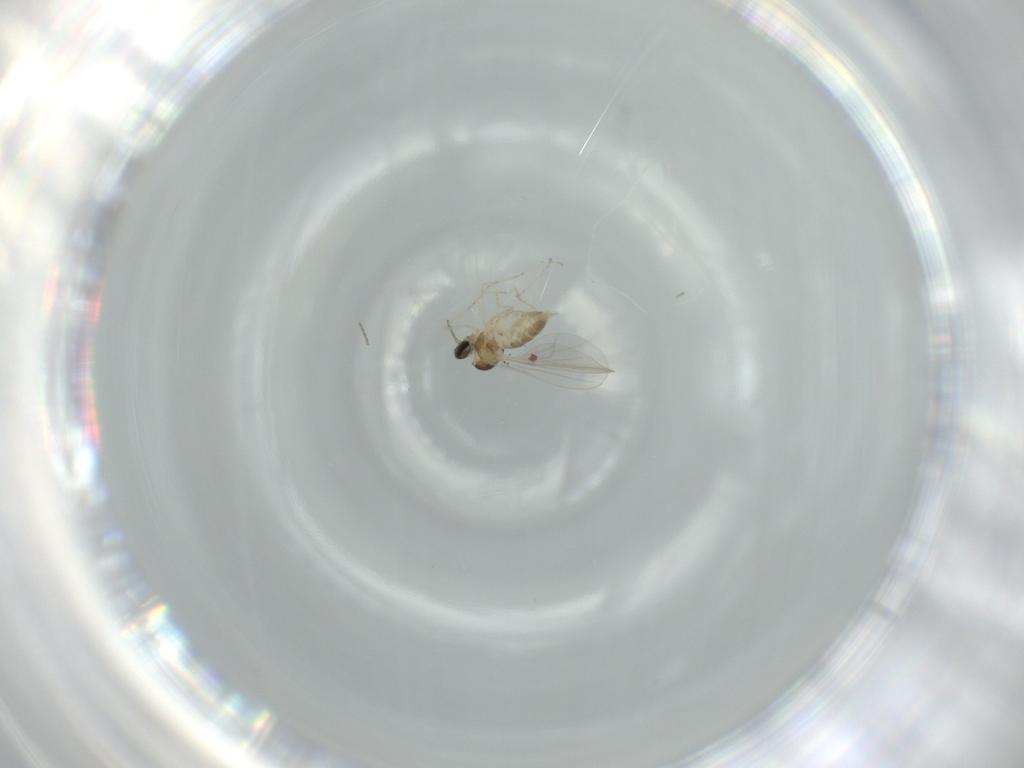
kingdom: Animalia
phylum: Arthropoda
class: Insecta
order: Diptera
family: Cecidomyiidae
